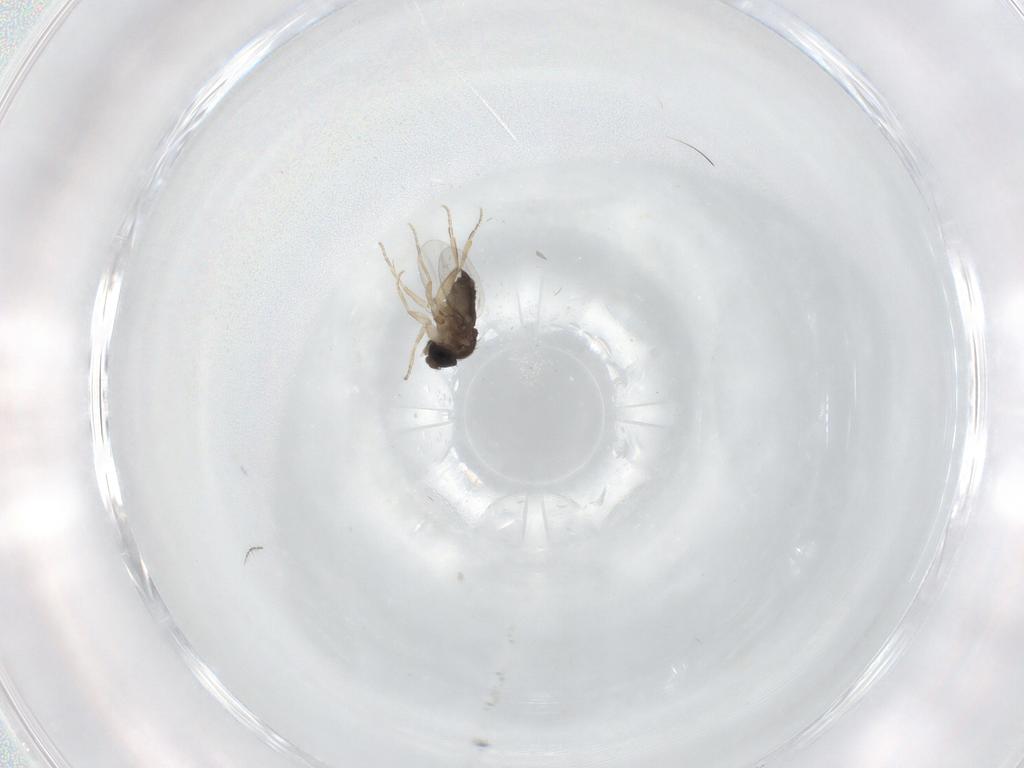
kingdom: Animalia
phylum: Arthropoda
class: Insecta
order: Diptera
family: Phoridae
